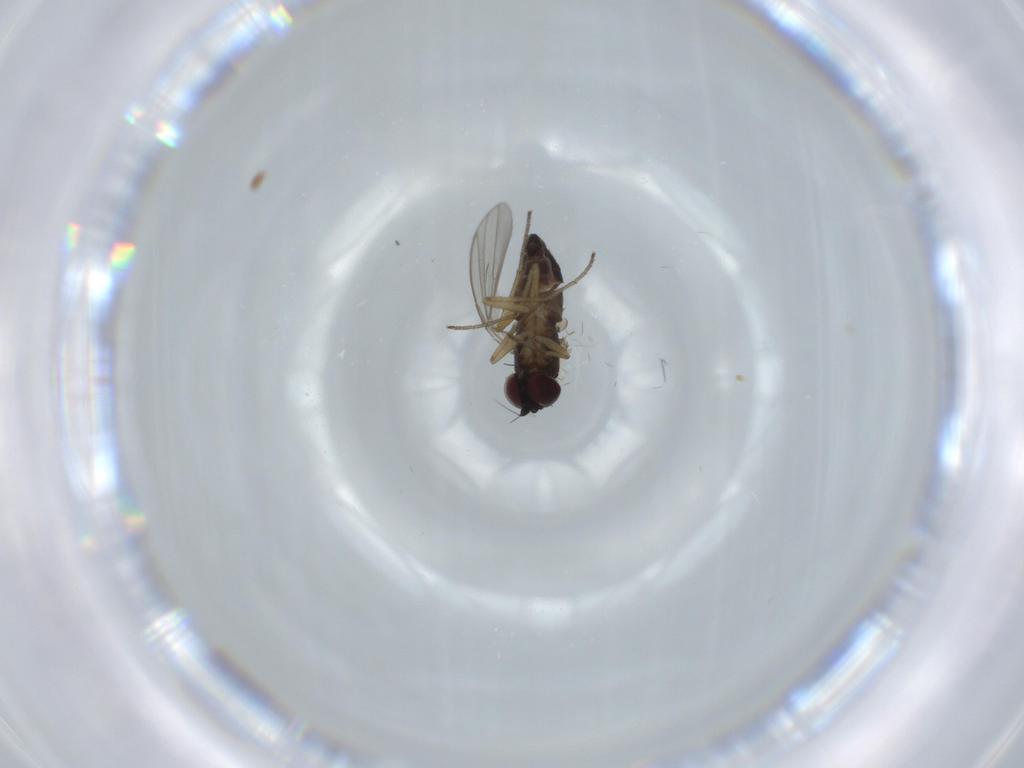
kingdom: Animalia
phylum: Arthropoda
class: Insecta
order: Diptera
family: Dolichopodidae
